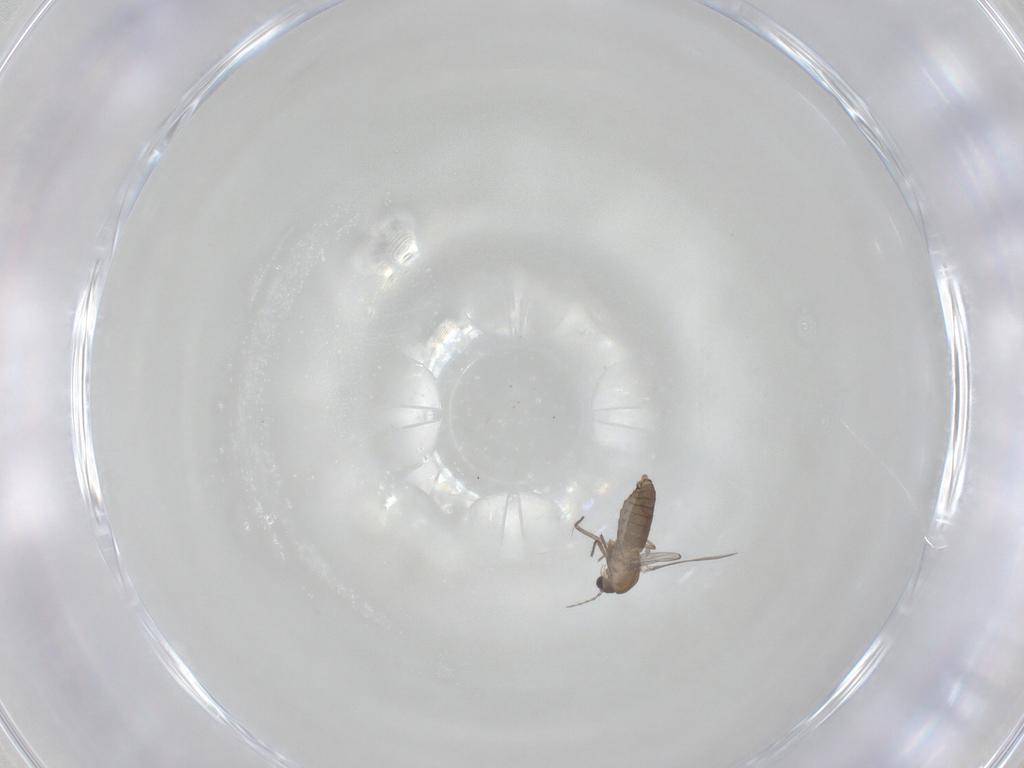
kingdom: Animalia
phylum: Arthropoda
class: Insecta
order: Diptera
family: Chironomidae
